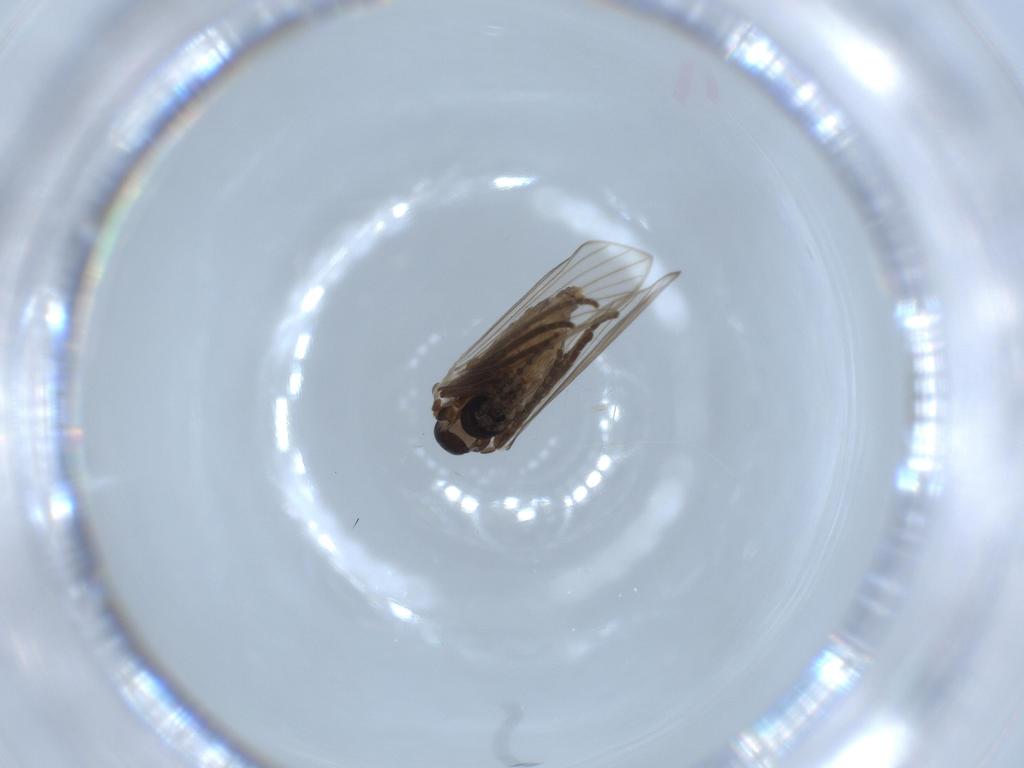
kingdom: Animalia
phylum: Arthropoda
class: Insecta
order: Diptera
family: Psychodidae
